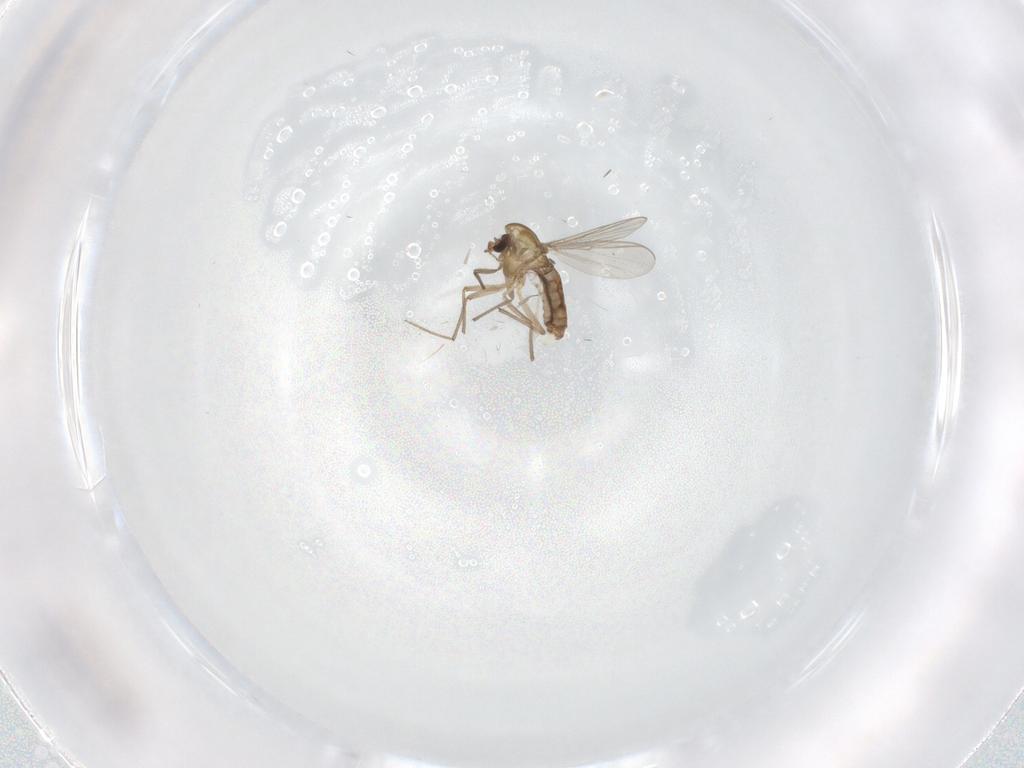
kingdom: Animalia
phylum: Arthropoda
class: Insecta
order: Diptera
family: Chironomidae
